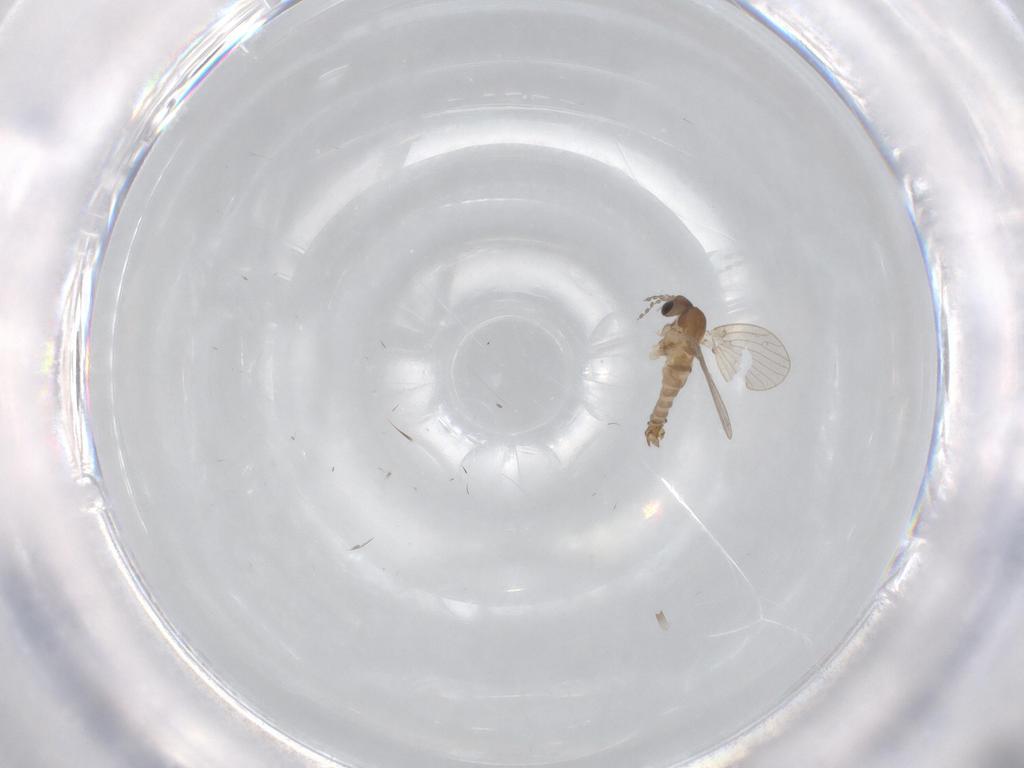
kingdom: Animalia
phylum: Arthropoda
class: Insecta
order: Diptera
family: Psychodidae
